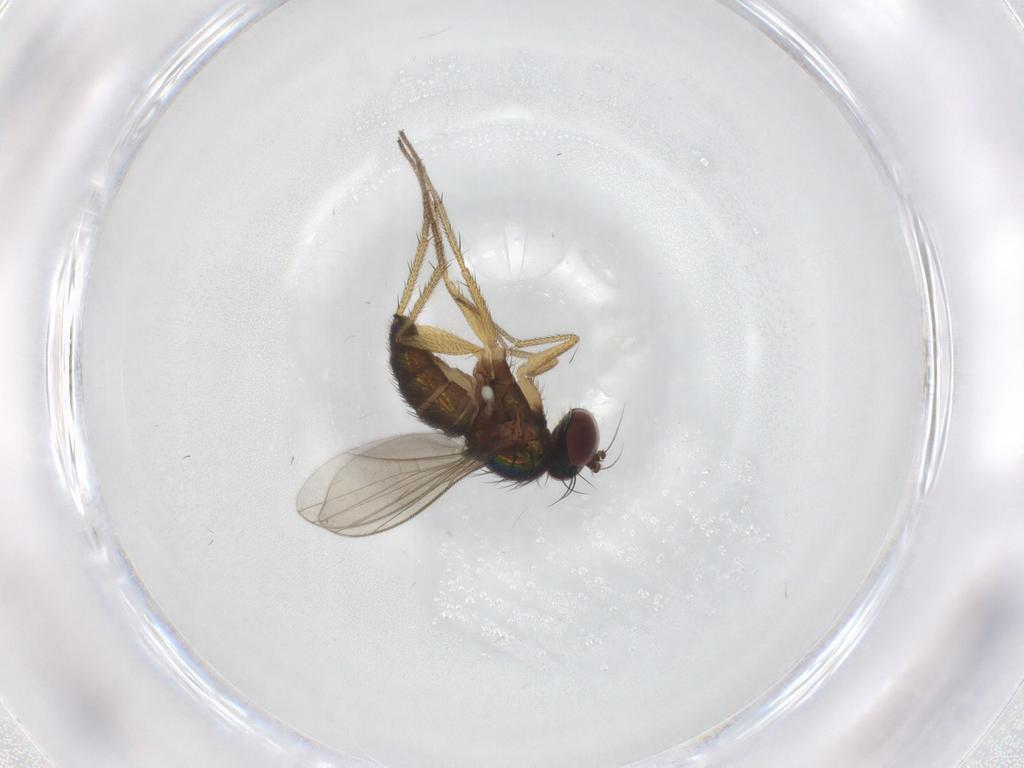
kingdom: Animalia
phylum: Arthropoda
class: Insecta
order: Diptera
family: Dolichopodidae
